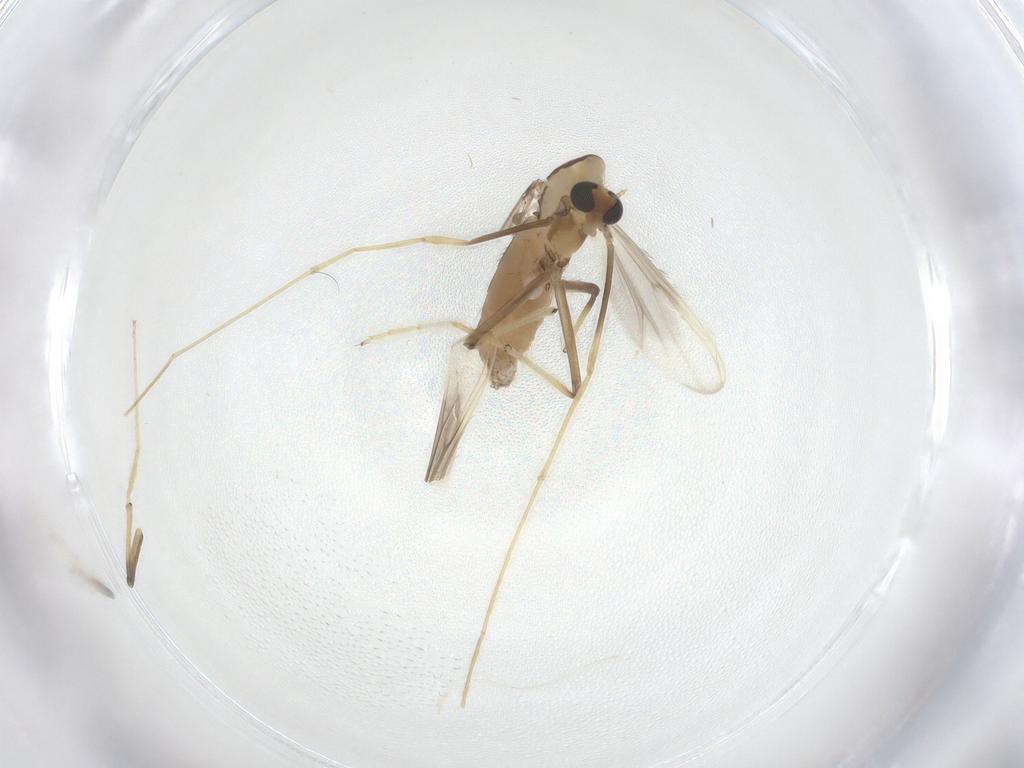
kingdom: Animalia
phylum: Arthropoda
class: Insecta
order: Diptera
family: Chironomidae
